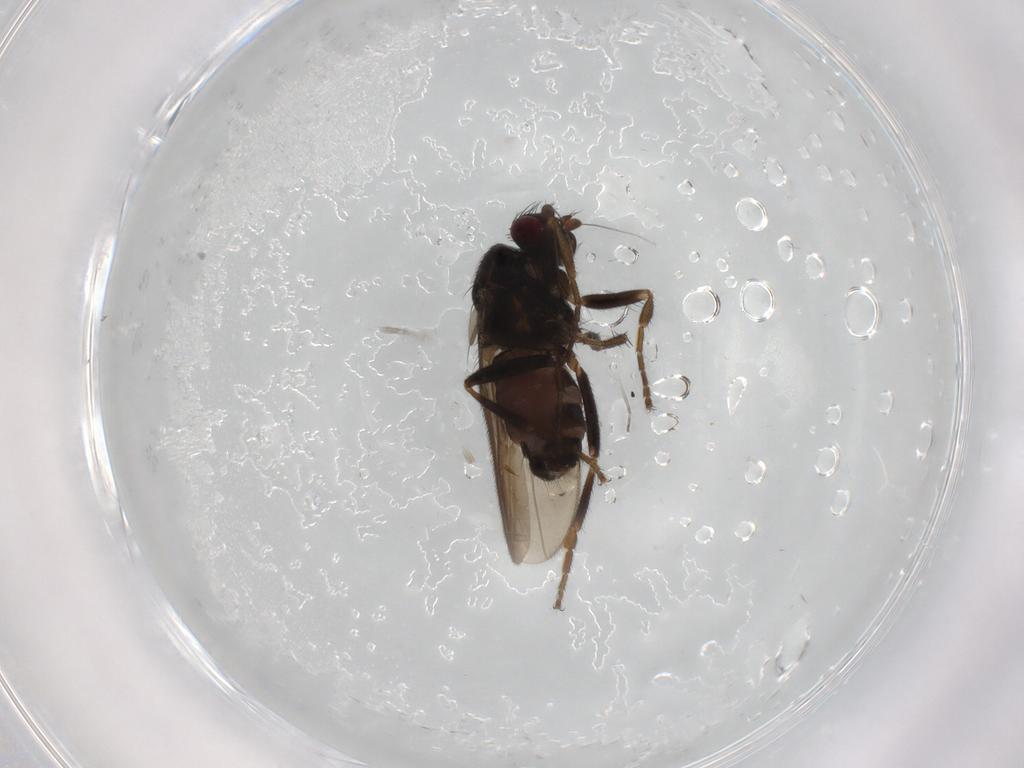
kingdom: Animalia
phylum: Arthropoda
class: Insecta
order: Diptera
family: Sphaeroceridae
